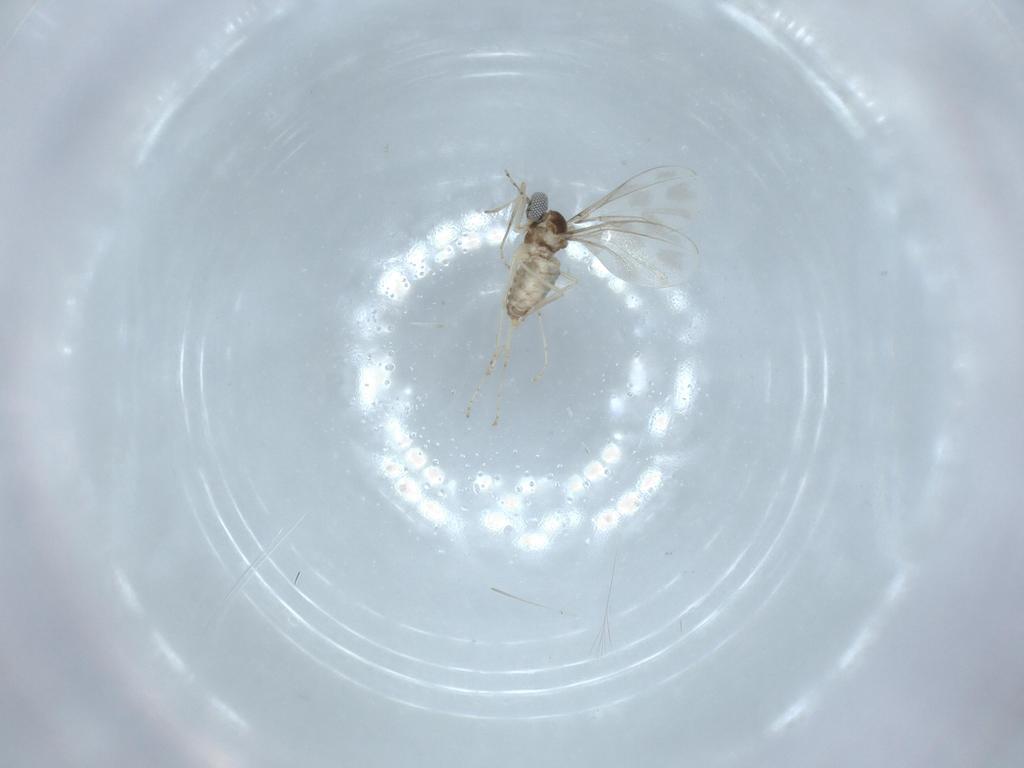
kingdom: Animalia
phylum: Arthropoda
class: Insecta
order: Diptera
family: Cecidomyiidae
